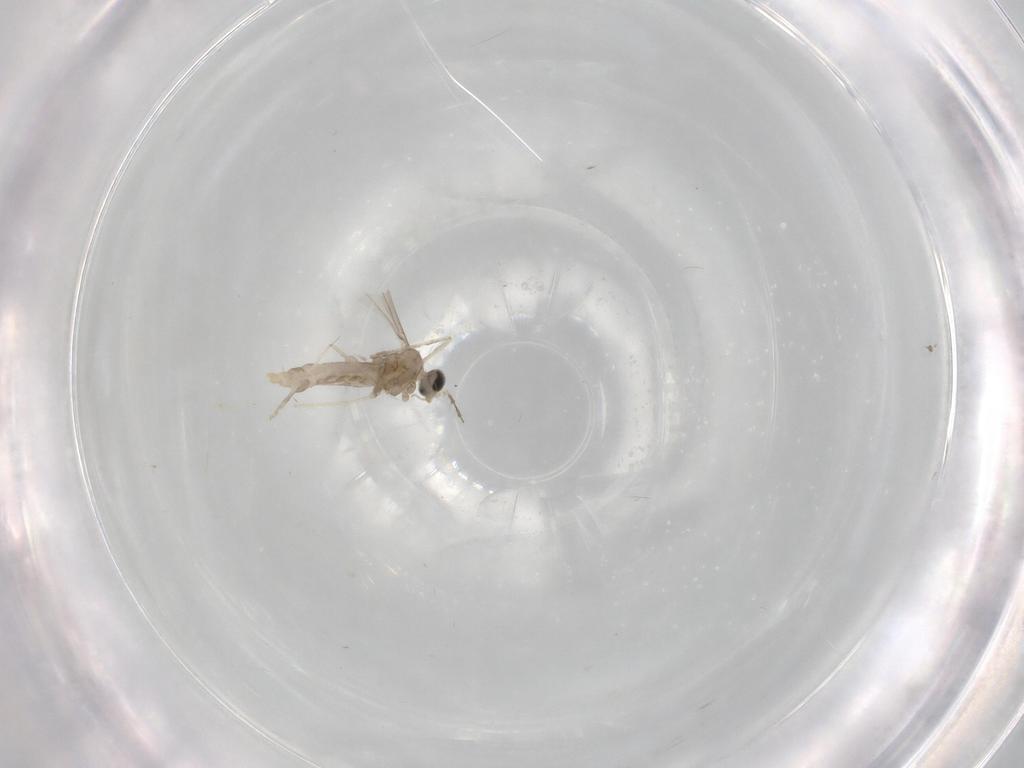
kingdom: Animalia
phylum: Arthropoda
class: Insecta
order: Diptera
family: Cecidomyiidae
